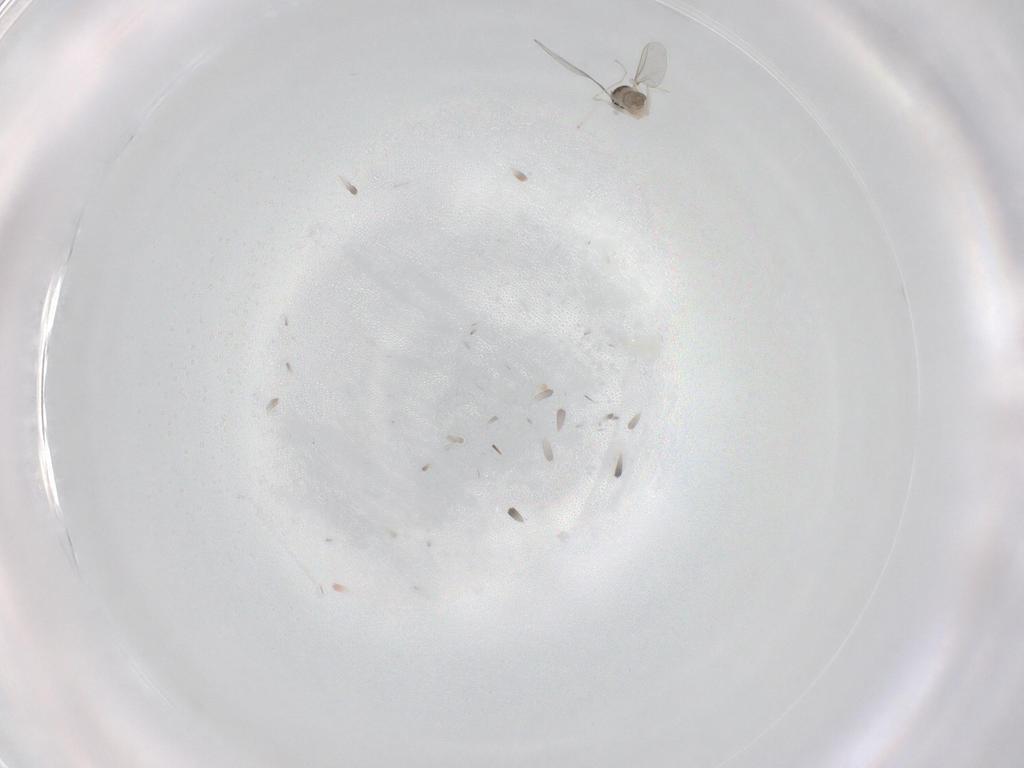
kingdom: Animalia
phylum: Arthropoda
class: Insecta
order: Diptera
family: Cecidomyiidae
